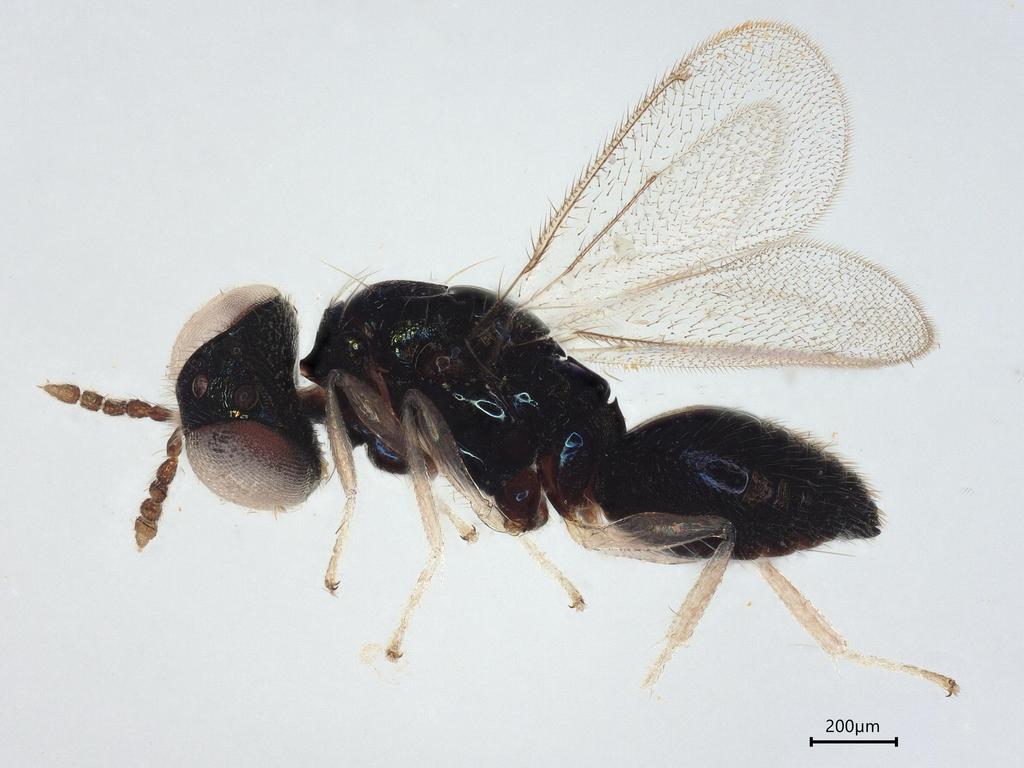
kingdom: Animalia
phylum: Arthropoda
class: Insecta
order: Hymenoptera
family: Eulophidae
